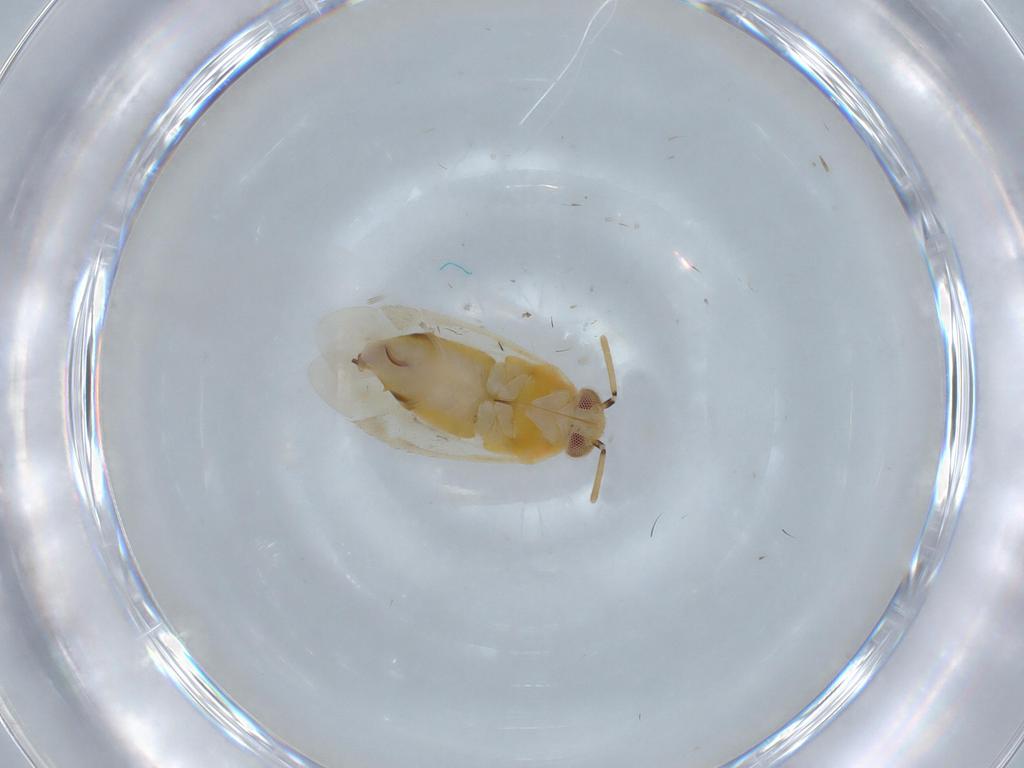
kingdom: Animalia
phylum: Arthropoda
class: Insecta
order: Hemiptera
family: Miridae
